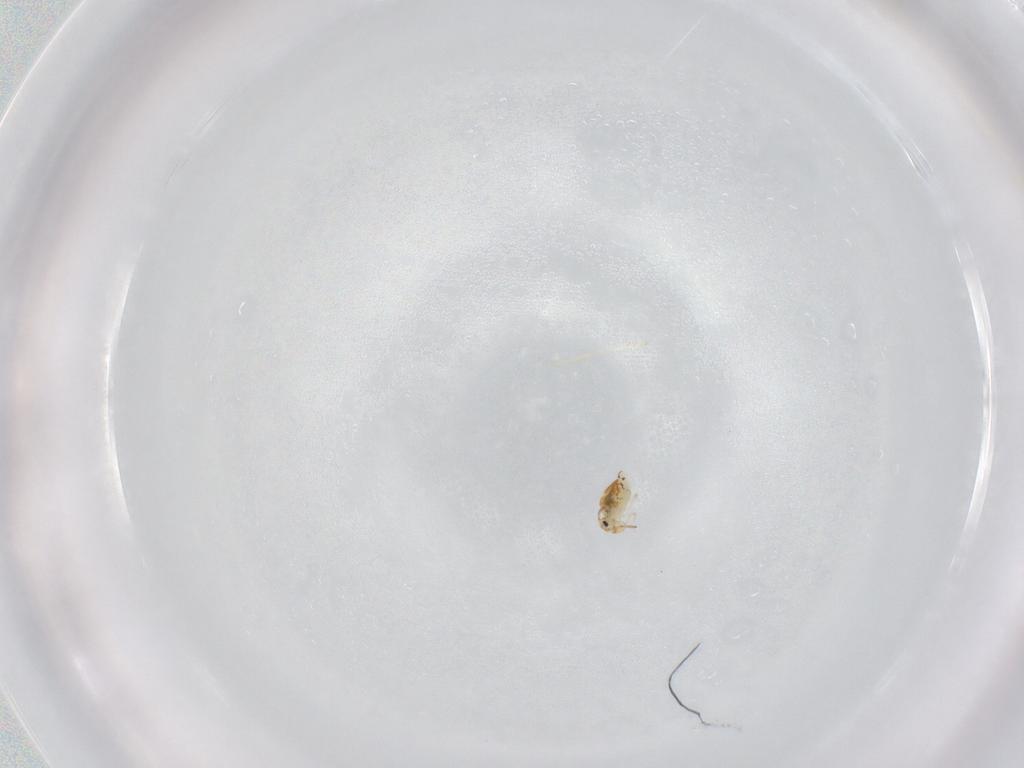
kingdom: Animalia
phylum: Arthropoda
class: Collembola
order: Symphypleona
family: Bourletiellidae
